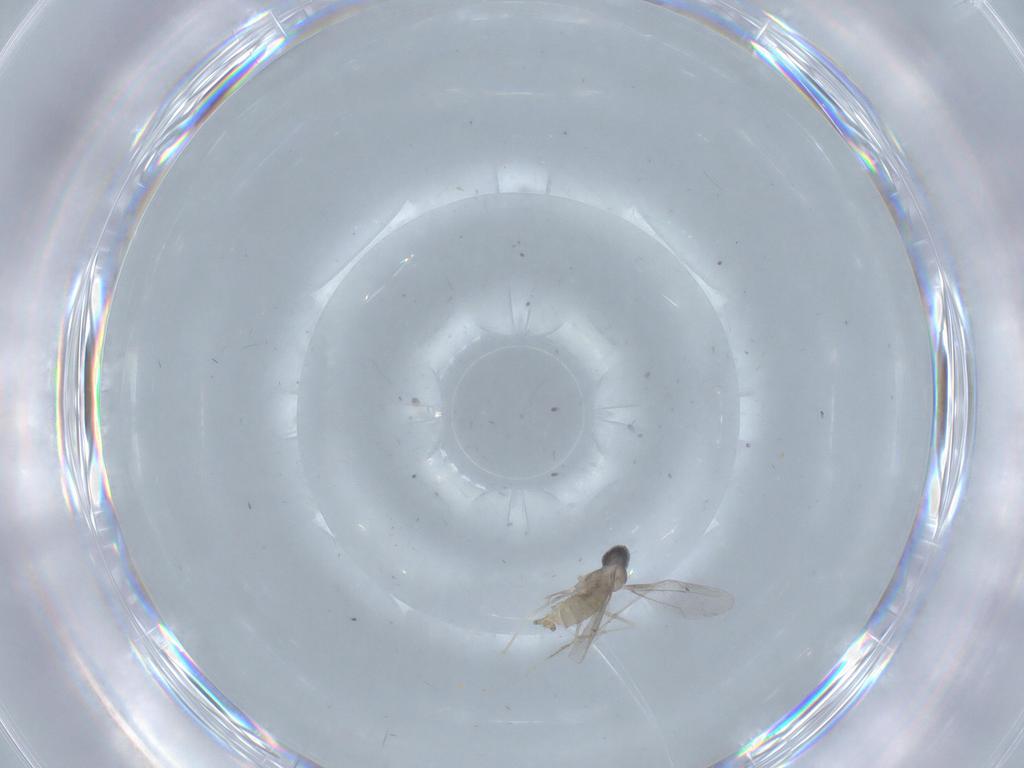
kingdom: Animalia
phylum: Arthropoda
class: Insecta
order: Diptera
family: Cecidomyiidae
